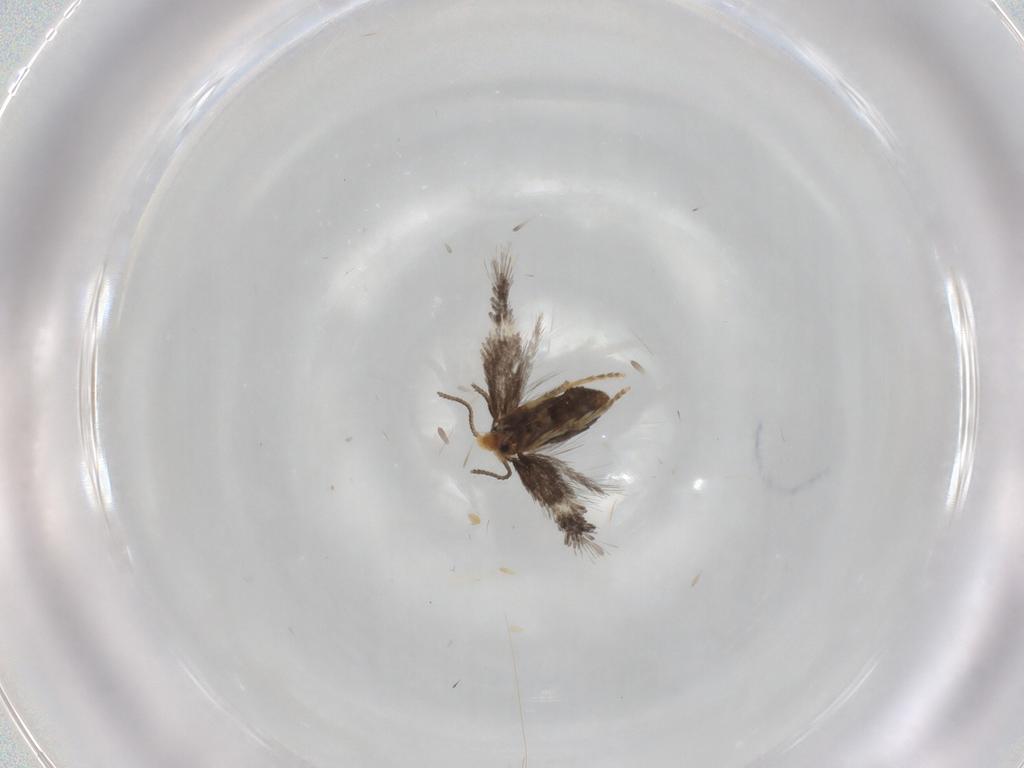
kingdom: Animalia
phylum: Arthropoda
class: Insecta
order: Lepidoptera
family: Nepticulidae
